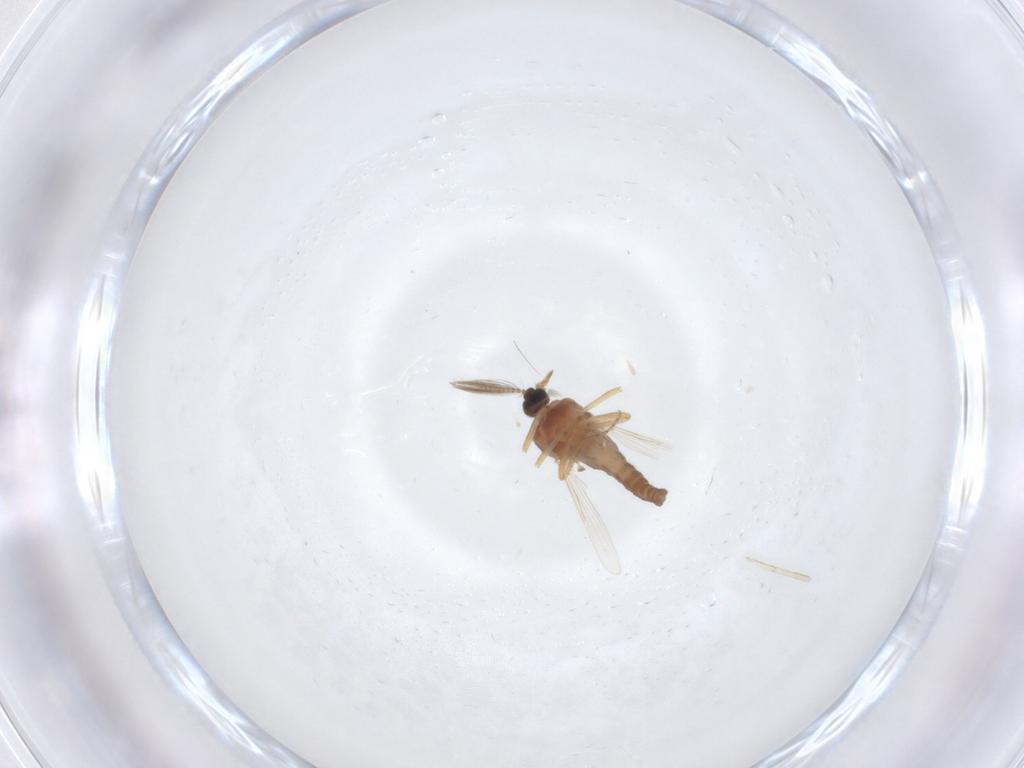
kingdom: Animalia
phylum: Arthropoda
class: Insecta
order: Diptera
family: Ceratopogonidae
